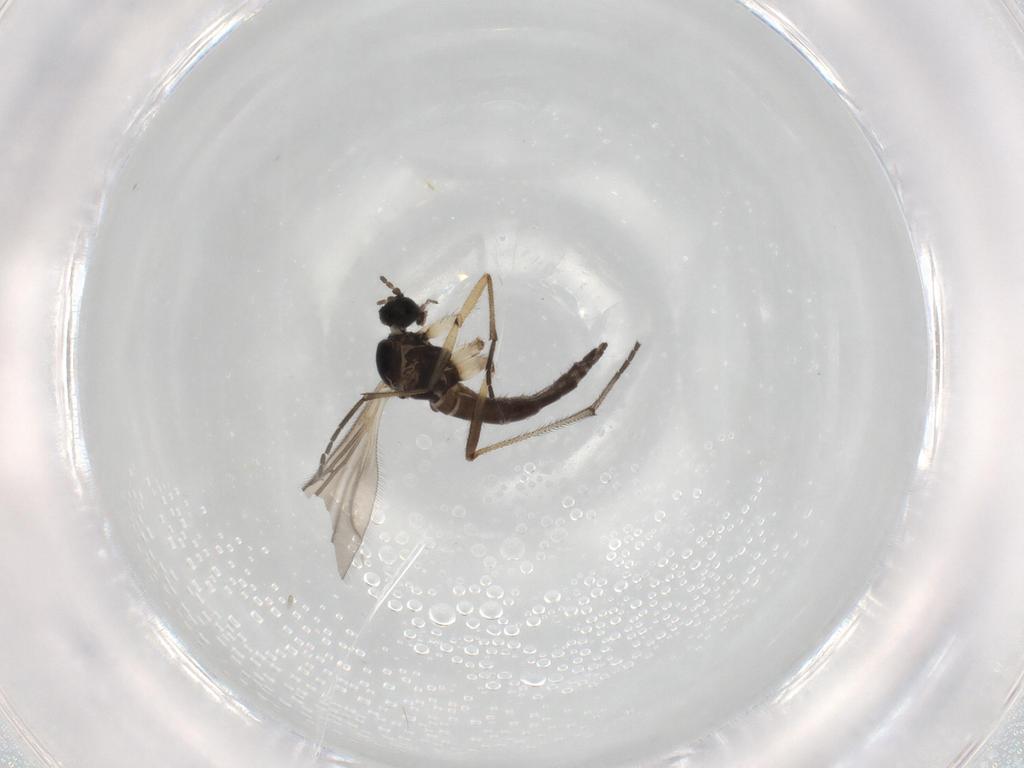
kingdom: Animalia
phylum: Arthropoda
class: Insecta
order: Diptera
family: Sciaridae
